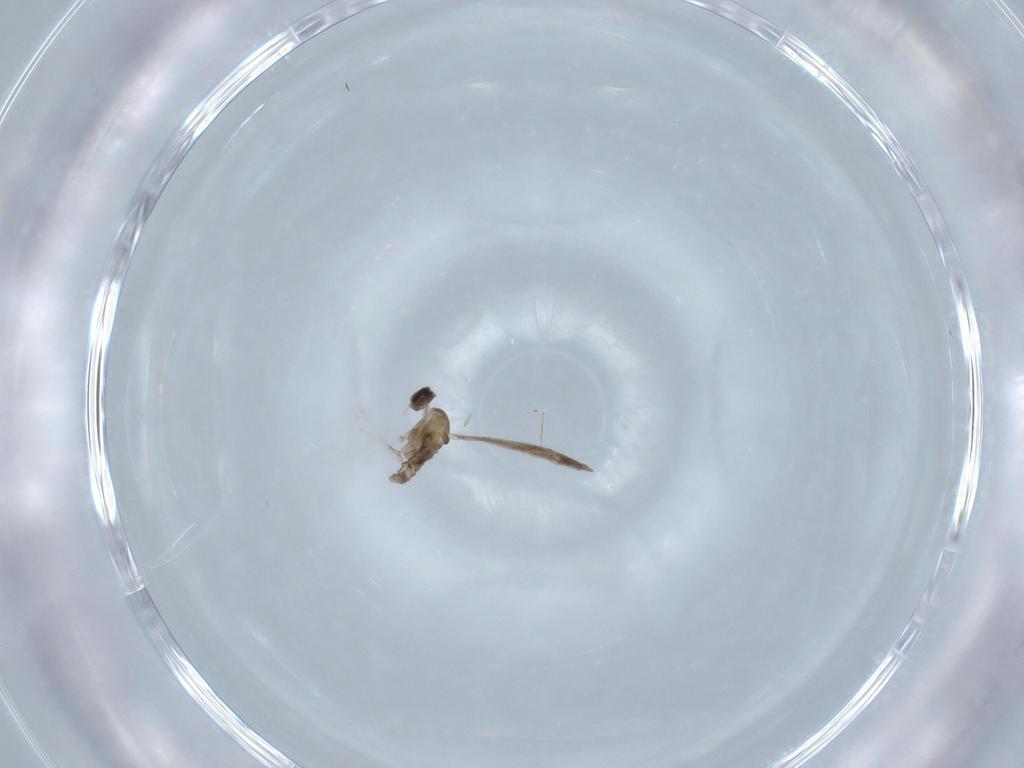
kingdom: Animalia
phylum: Arthropoda
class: Insecta
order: Diptera
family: Cecidomyiidae
